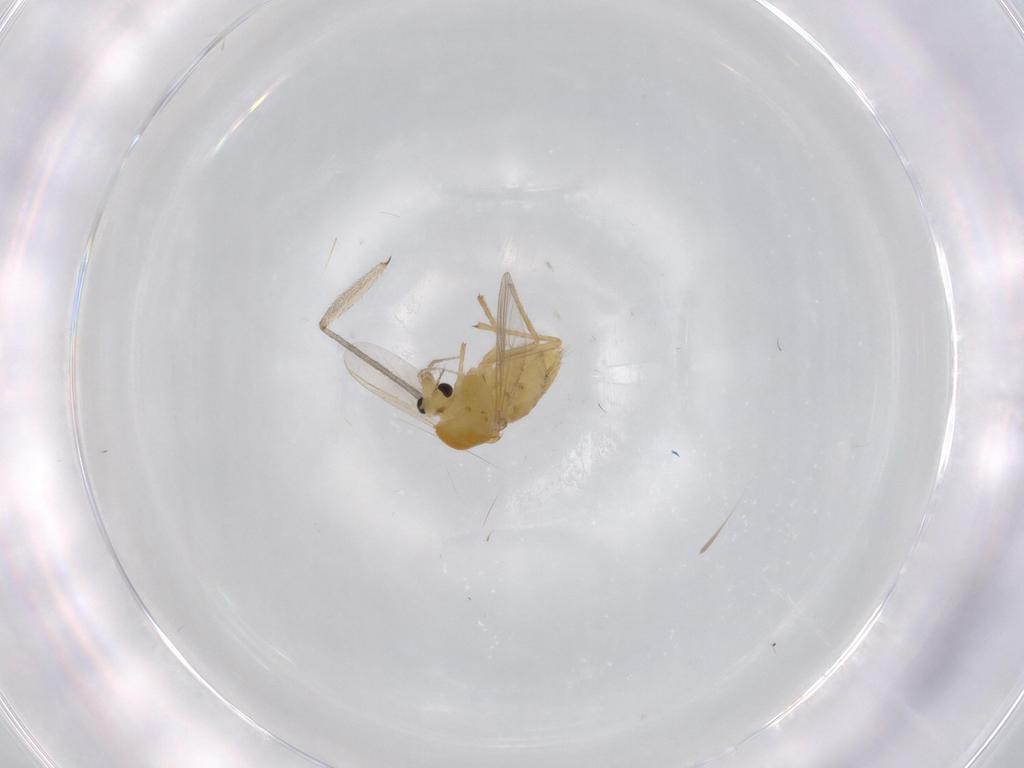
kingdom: Animalia
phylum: Arthropoda
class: Insecta
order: Diptera
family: Chironomidae
